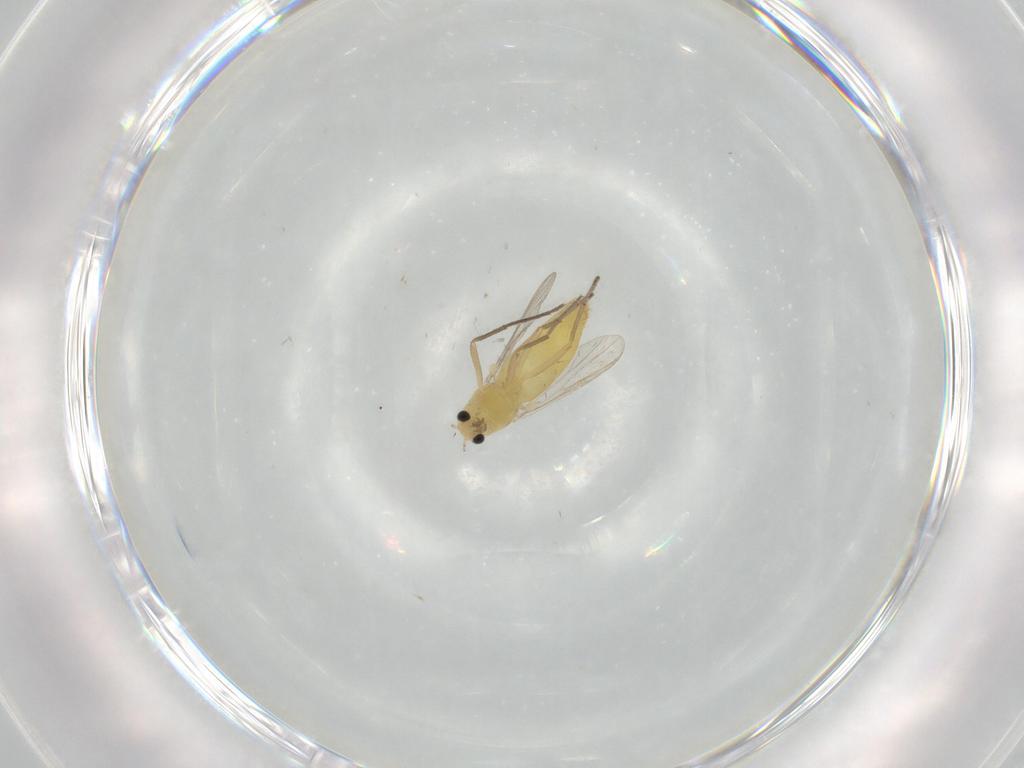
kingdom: Animalia
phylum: Arthropoda
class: Insecta
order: Diptera
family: Chironomidae
